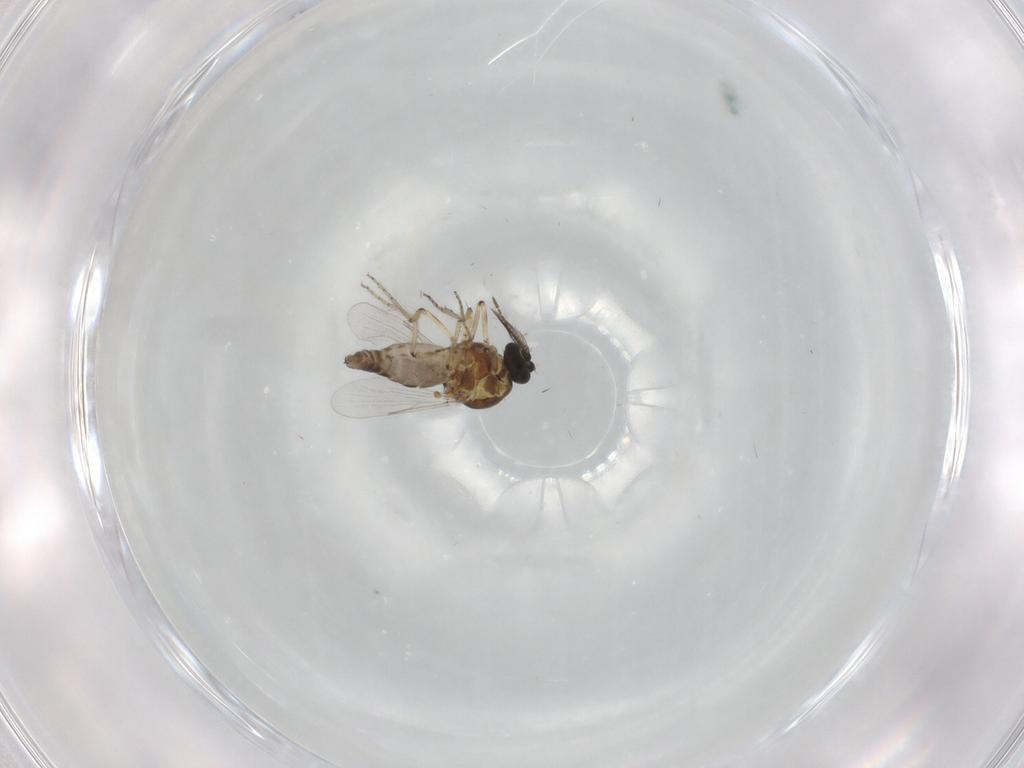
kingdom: Animalia
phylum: Arthropoda
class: Insecta
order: Diptera
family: Ceratopogonidae
